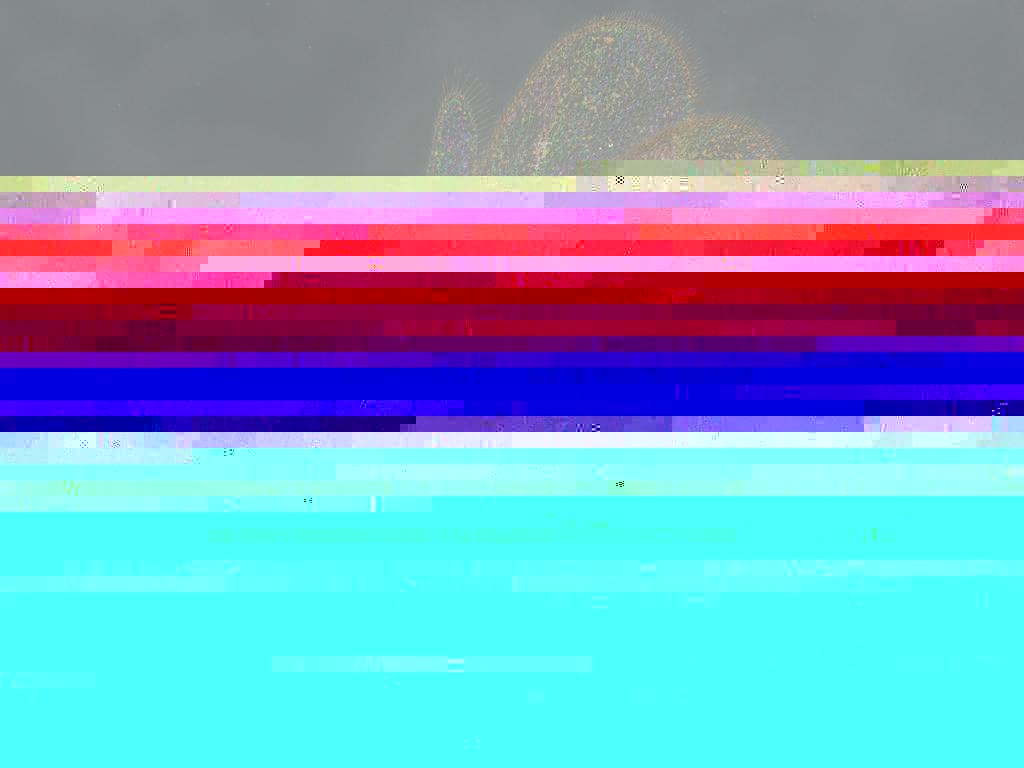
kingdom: Animalia
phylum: Arthropoda
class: Insecta
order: Hymenoptera
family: Figitidae
